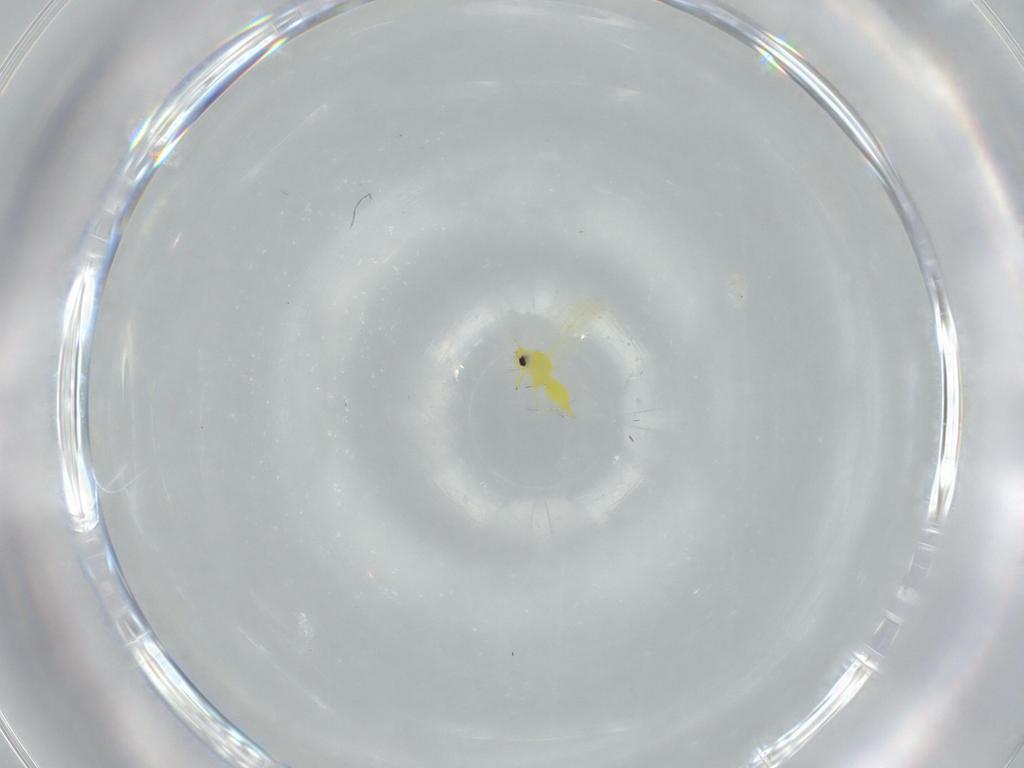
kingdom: Animalia
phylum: Arthropoda
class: Insecta
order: Hemiptera
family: Aleyrodidae
